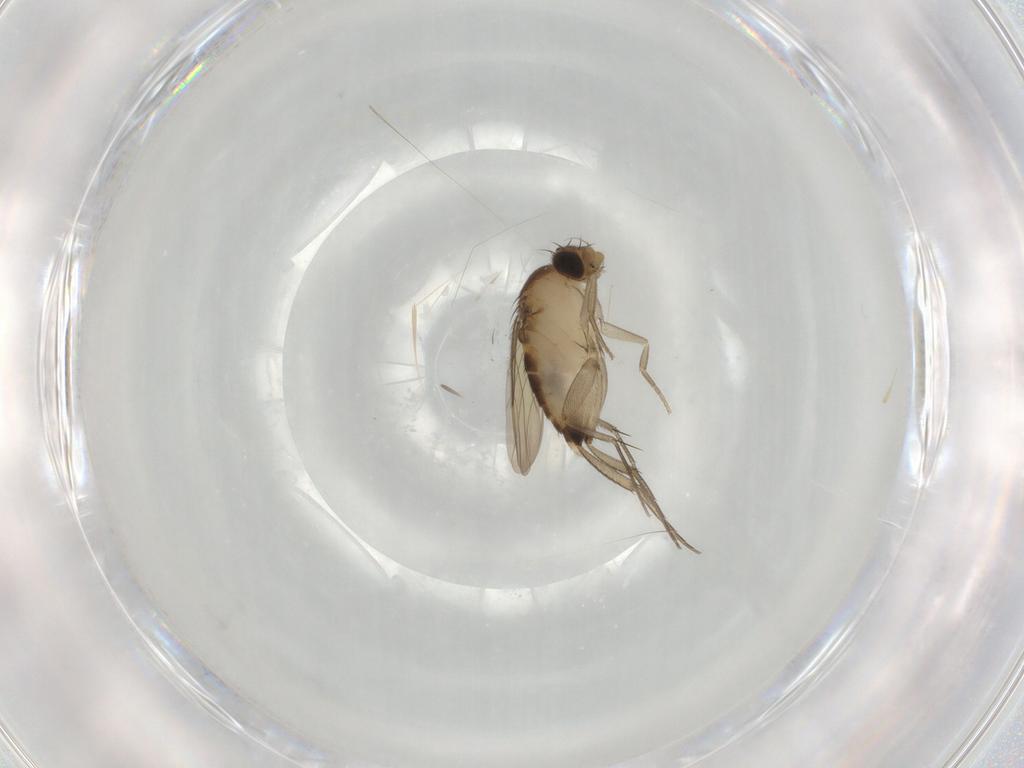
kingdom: Animalia
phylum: Arthropoda
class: Insecta
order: Diptera
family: Phoridae
